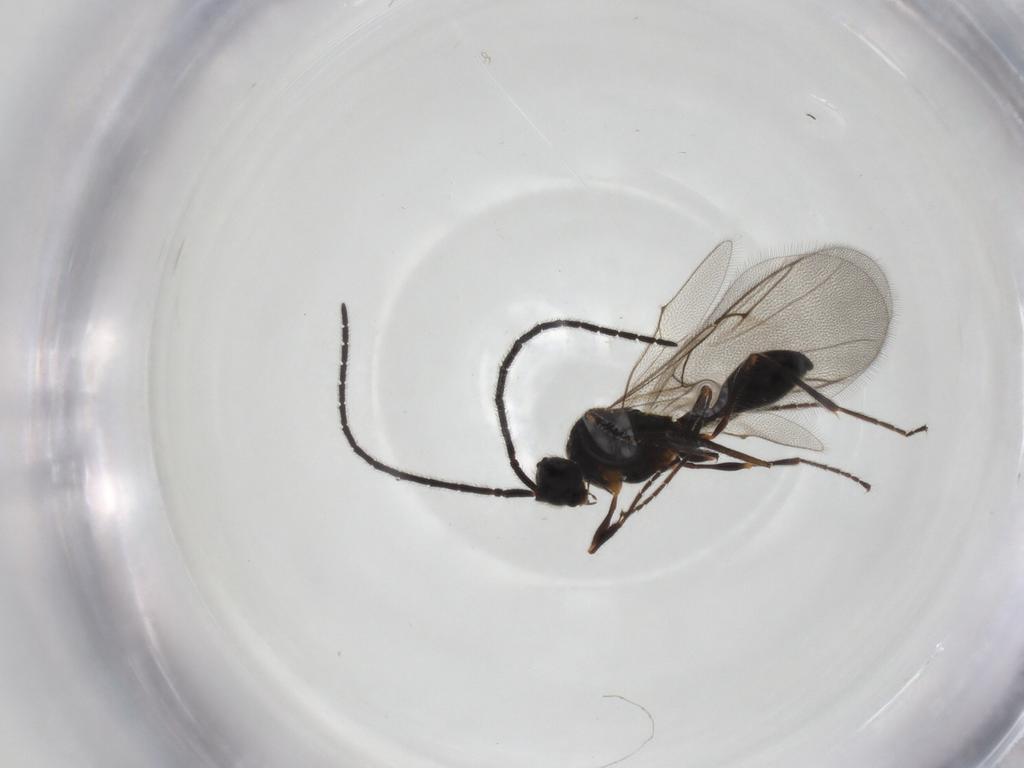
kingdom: Animalia
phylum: Arthropoda
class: Insecta
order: Hymenoptera
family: Diapriidae
